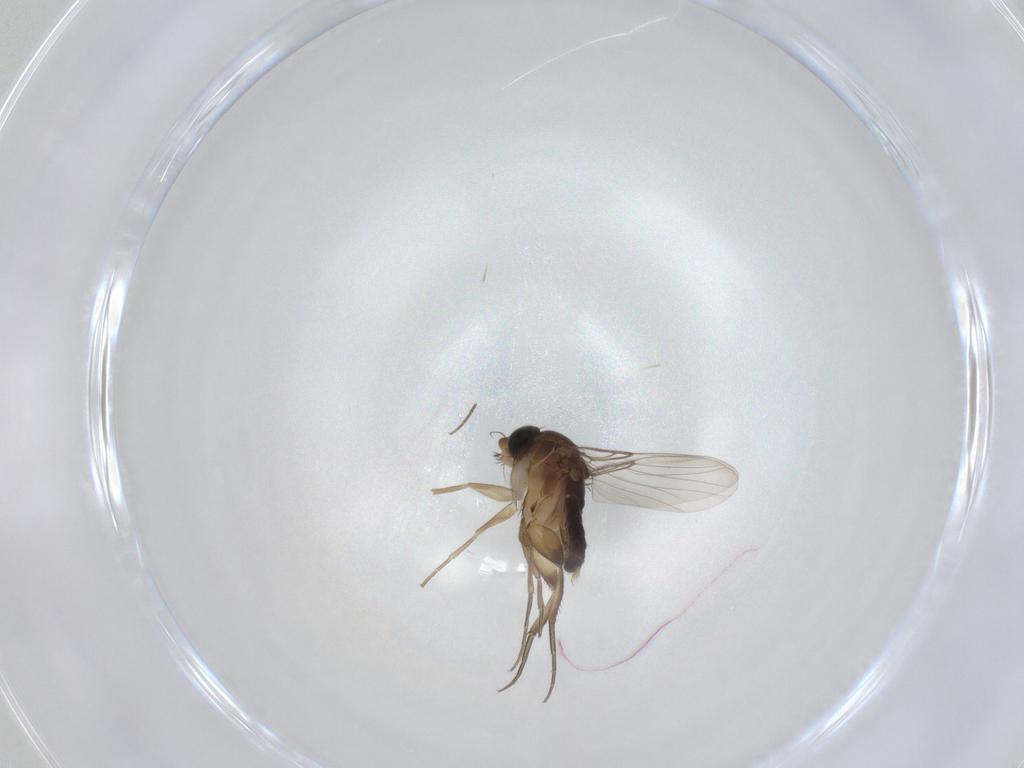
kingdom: Animalia
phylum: Arthropoda
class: Insecta
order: Diptera
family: Phoridae
